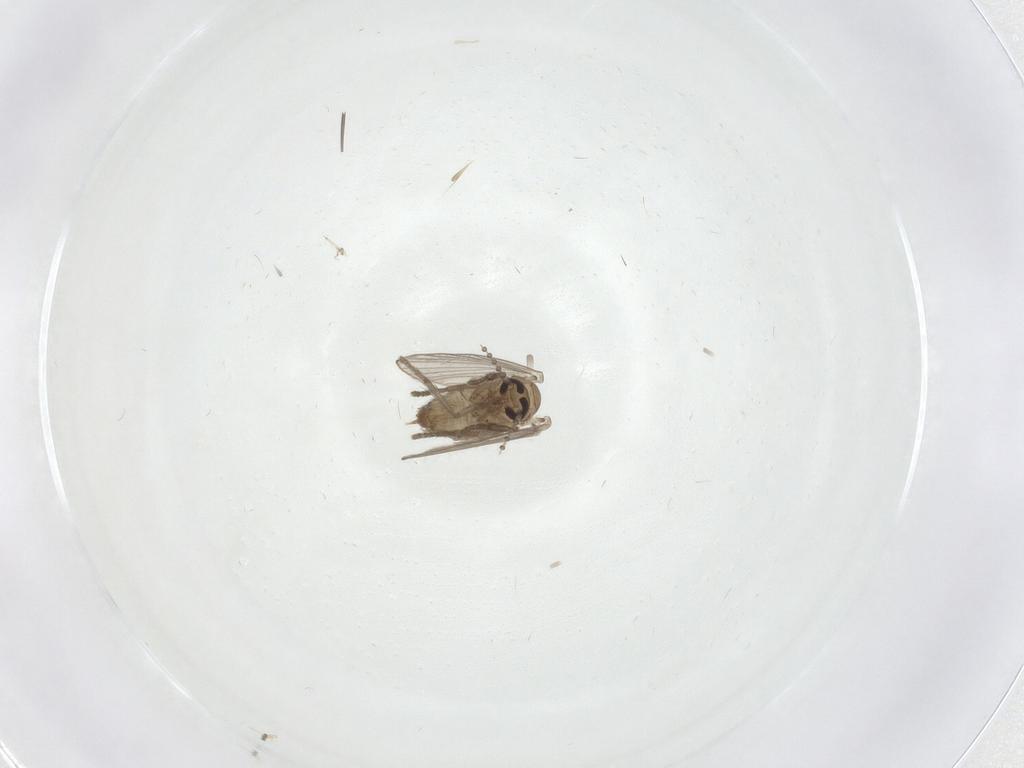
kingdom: Animalia
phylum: Arthropoda
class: Insecta
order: Diptera
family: Psychodidae
